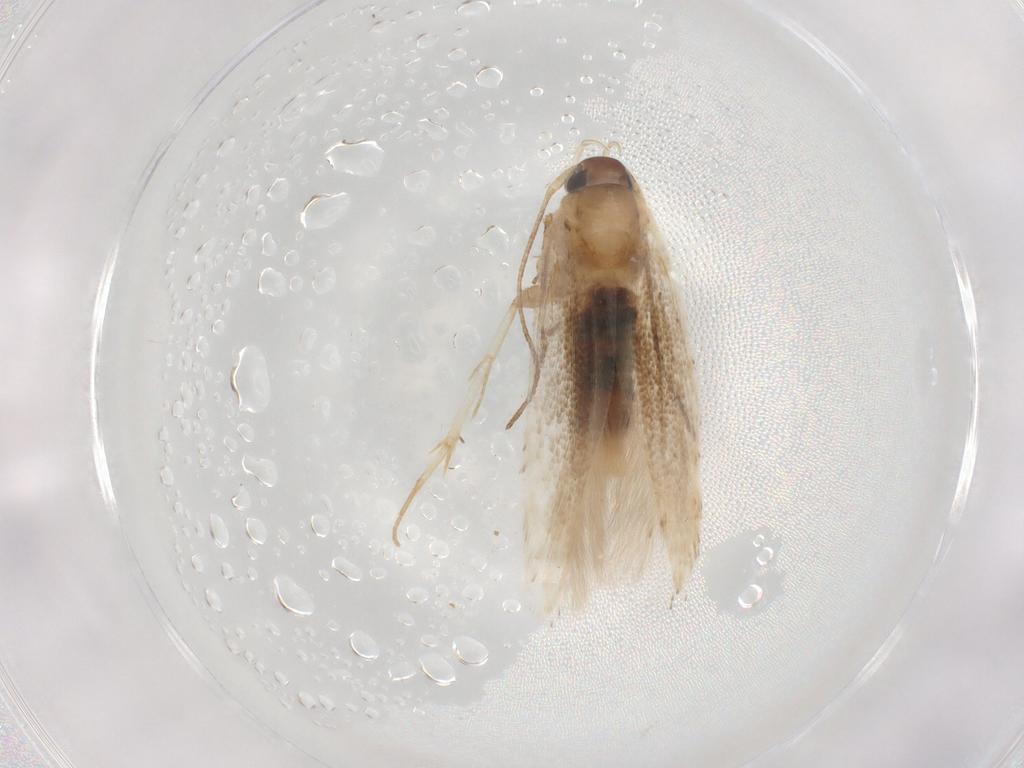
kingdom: Animalia
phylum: Arthropoda
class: Insecta
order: Lepidoptera
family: Cosmopterigidae
